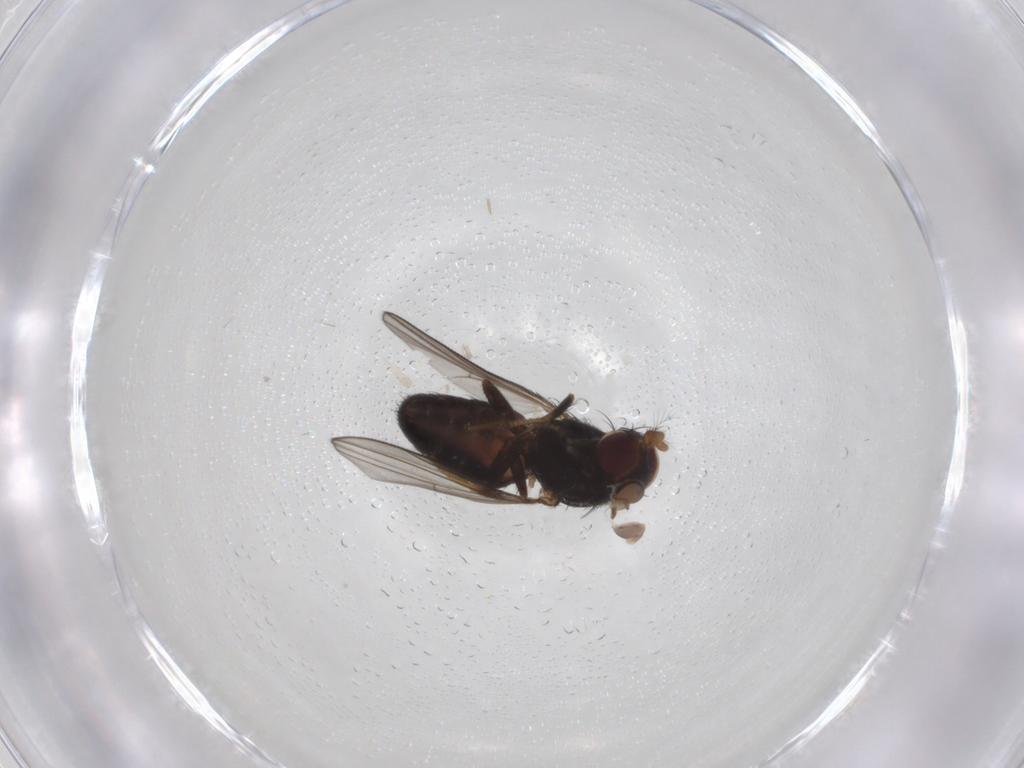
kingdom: Animalia
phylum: Arthropoda
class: Insecta
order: Diptera
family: Ephydridae
